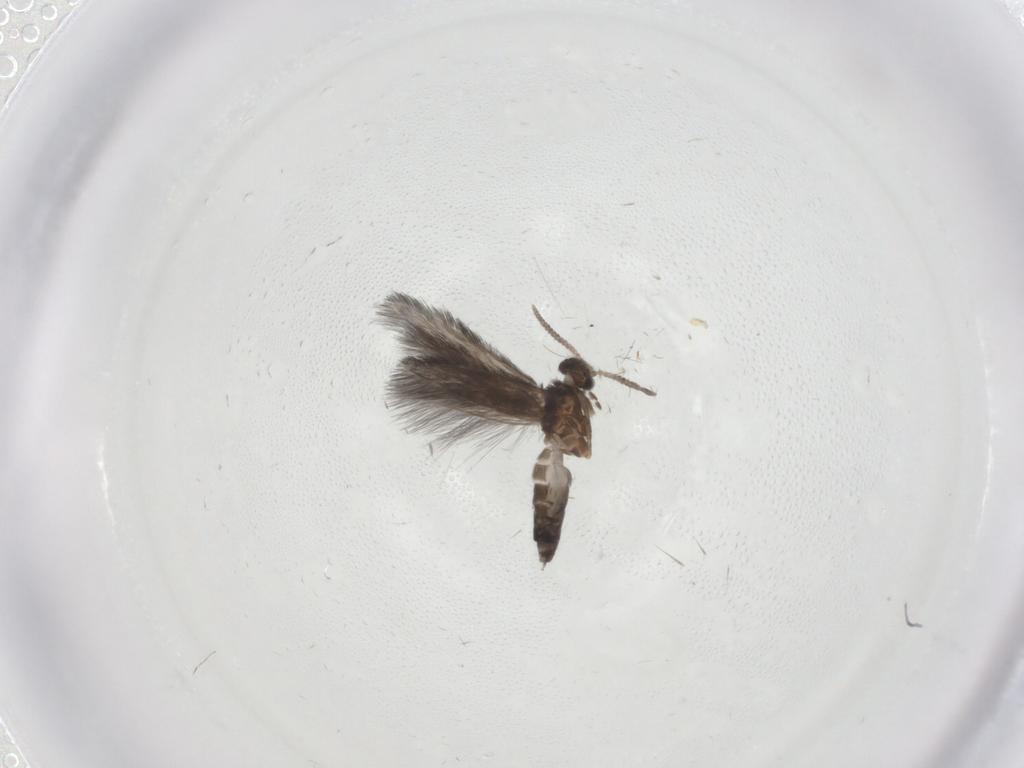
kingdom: Animalia
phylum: Arthropoda
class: Insecta
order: Trichoptera
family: Hydroptilidae
